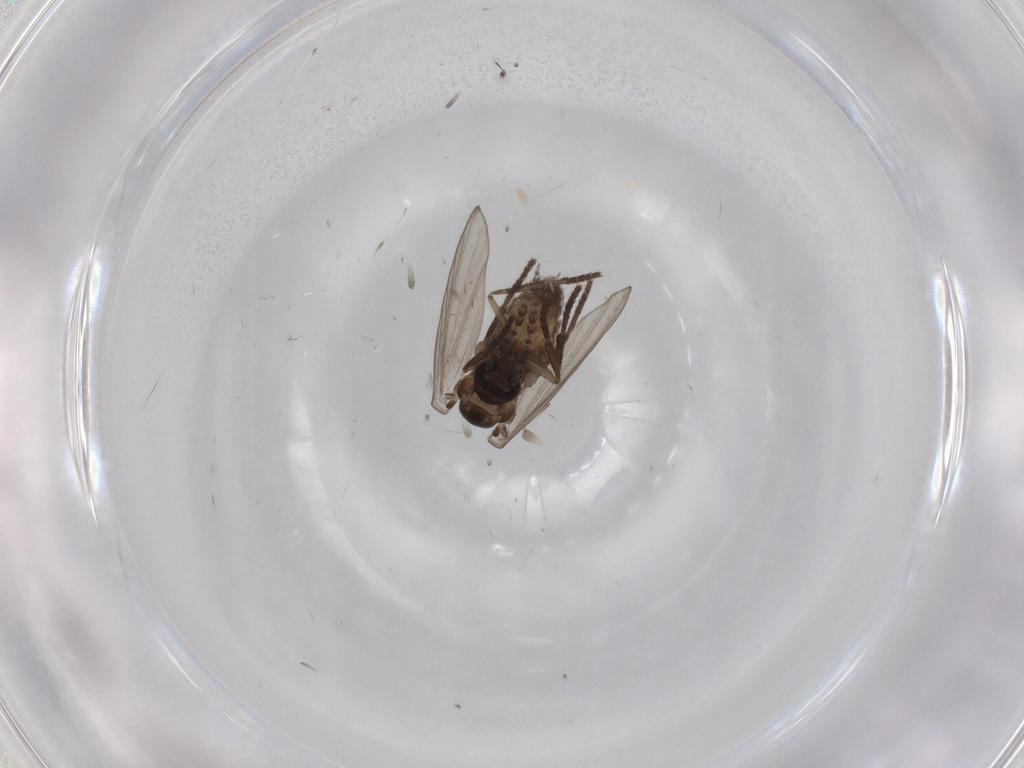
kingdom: Animalia
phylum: Arthropoda
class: Insecta
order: Diptera
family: Psychodidae
